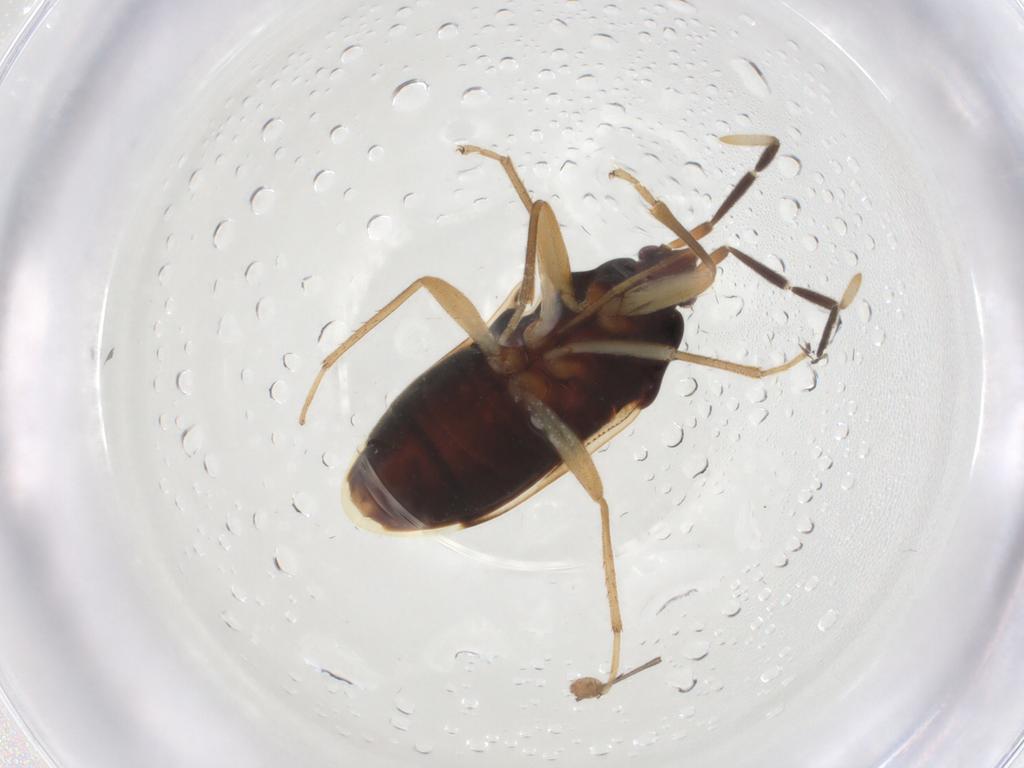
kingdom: Animalia
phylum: Arthropoda
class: Insecta
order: Hemiptera
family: Rhyparochromidae
